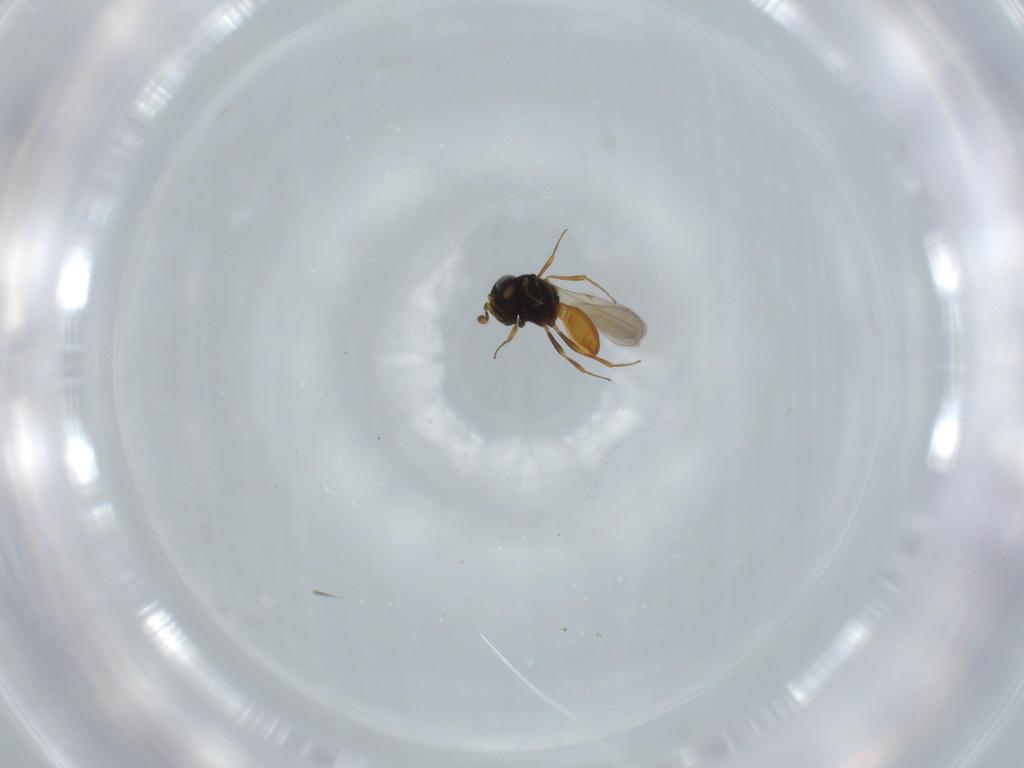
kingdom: Animalia
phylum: Arthropoda
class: Insecta
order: Hymenoptera
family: Scelionidae
